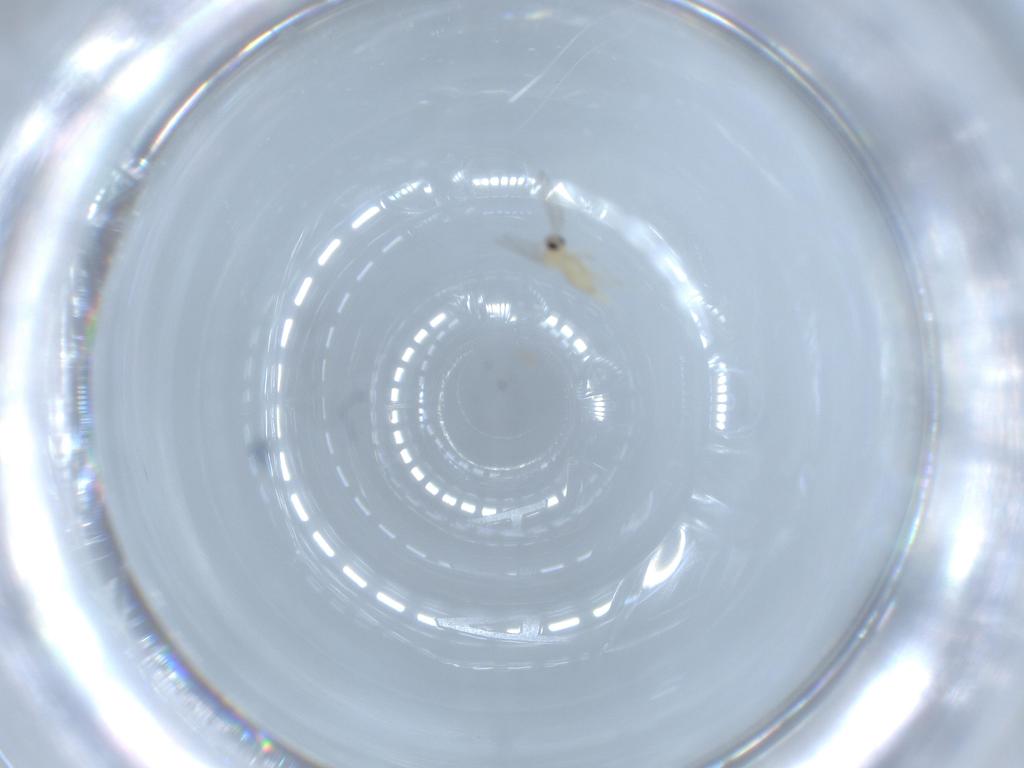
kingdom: Animalia
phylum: Arthropoda
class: Insecta
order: Diptera
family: Cecidomyiidae
